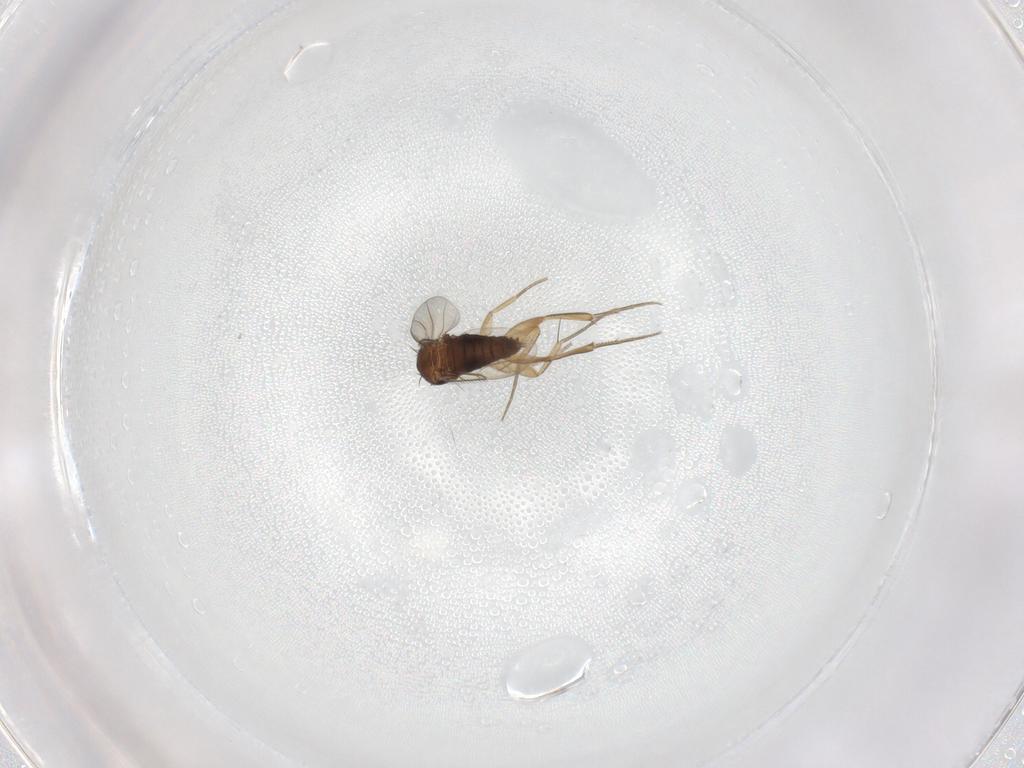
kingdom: Animalia
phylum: Arthropoda
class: Insecta
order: Diptera
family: Phoridae
